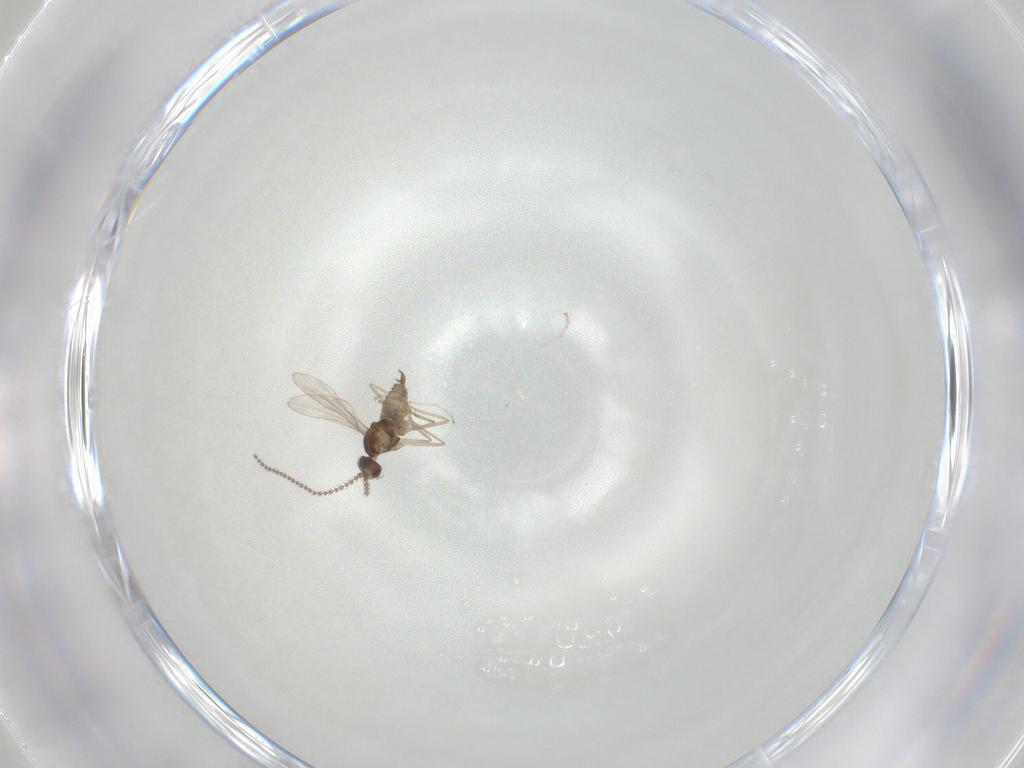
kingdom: Animalia
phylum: Arthropoda
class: Insecta
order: Diptera
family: Cecidomyiidae
